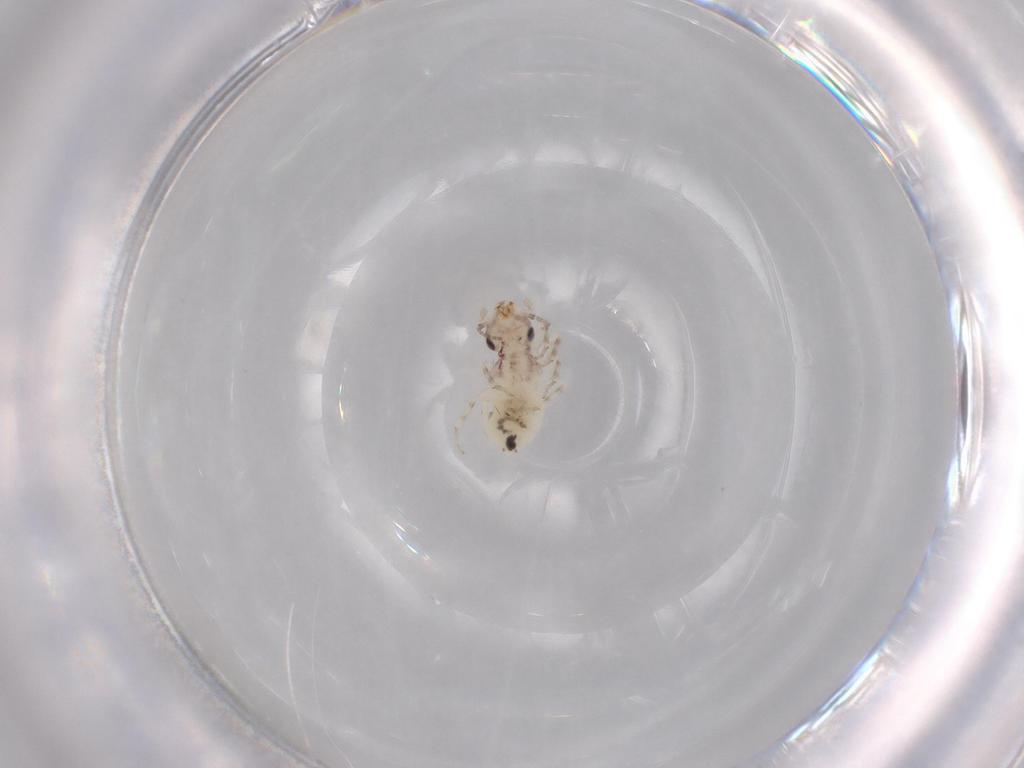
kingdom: Animalia
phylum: Arthropoda
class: Insecta
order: Psocodea
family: Lepidopsocidae
